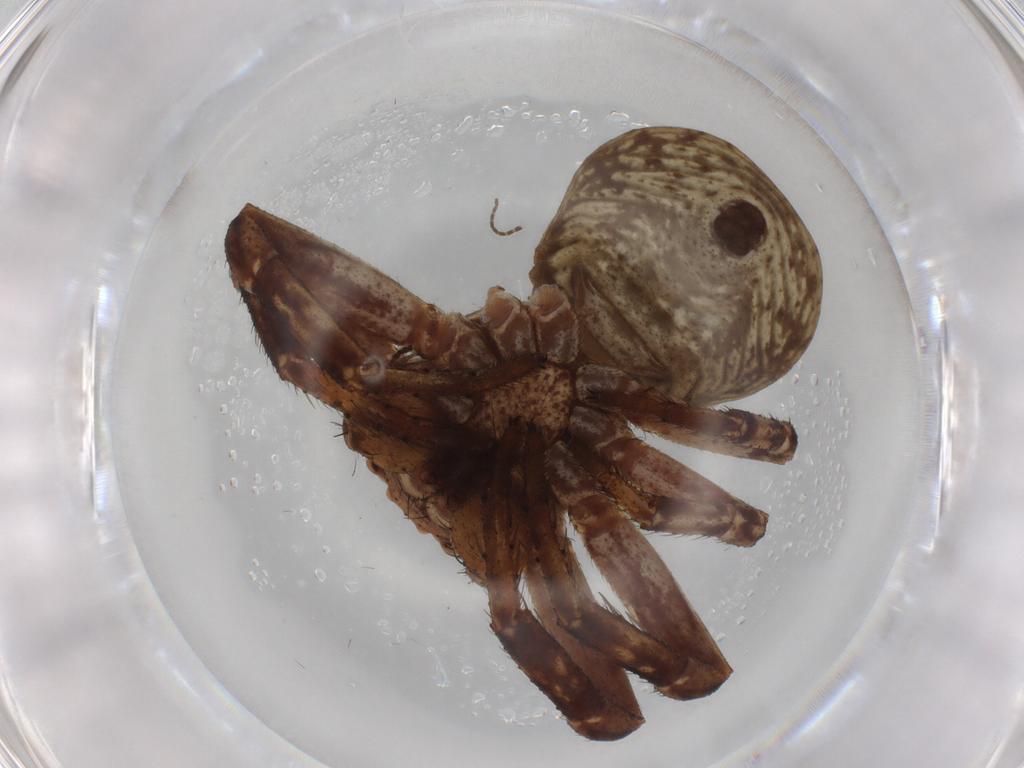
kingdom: Animalia
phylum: Arthropoda
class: Arachnida
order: Araneae
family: Thomisidae
